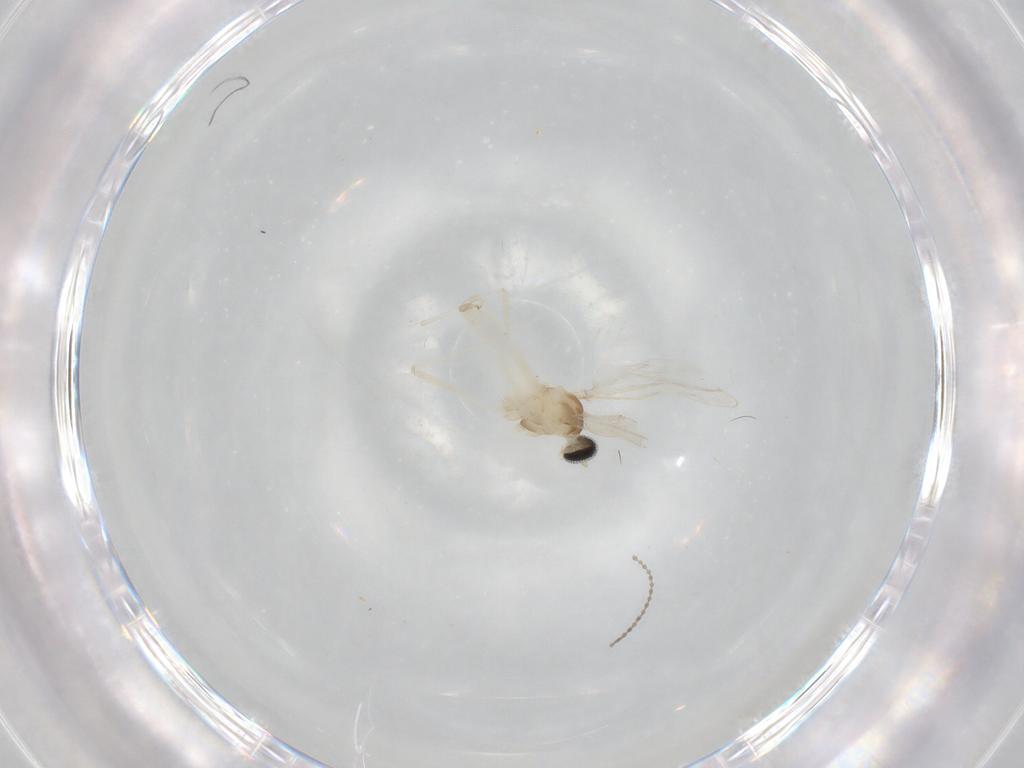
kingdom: Animalia
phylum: Arthropoda
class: Insecta
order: Diptera
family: Cecidomyiidae
